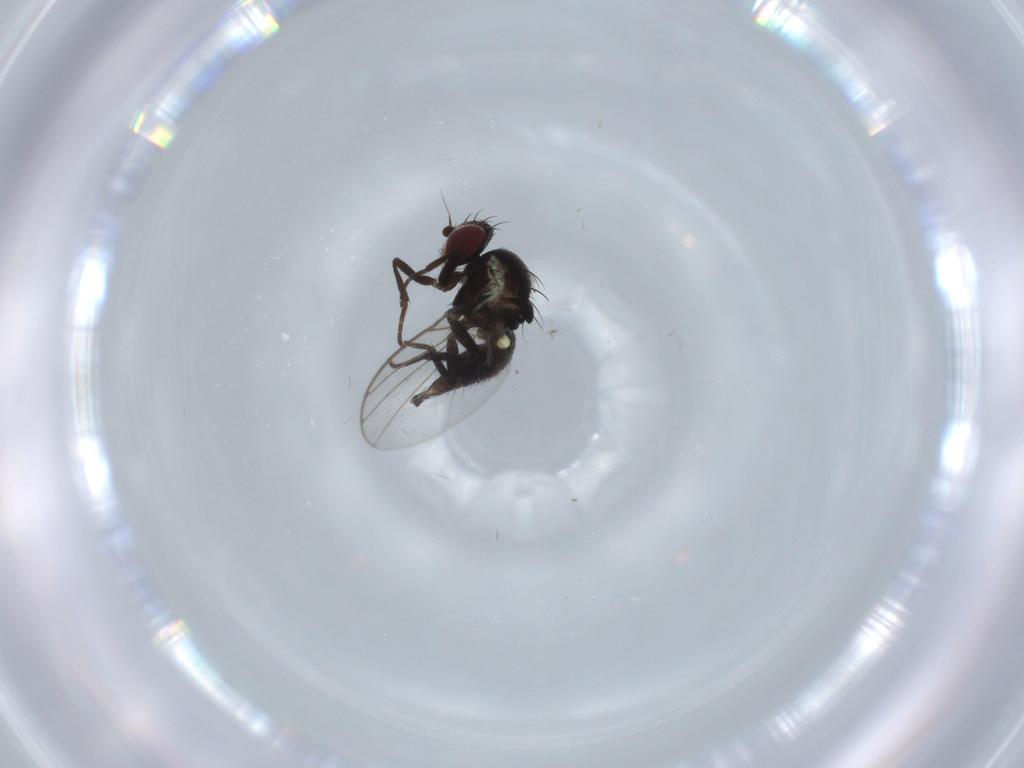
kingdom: Animalia
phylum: Arthropoda
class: Insecta
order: Diptera
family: Agromyzidae
